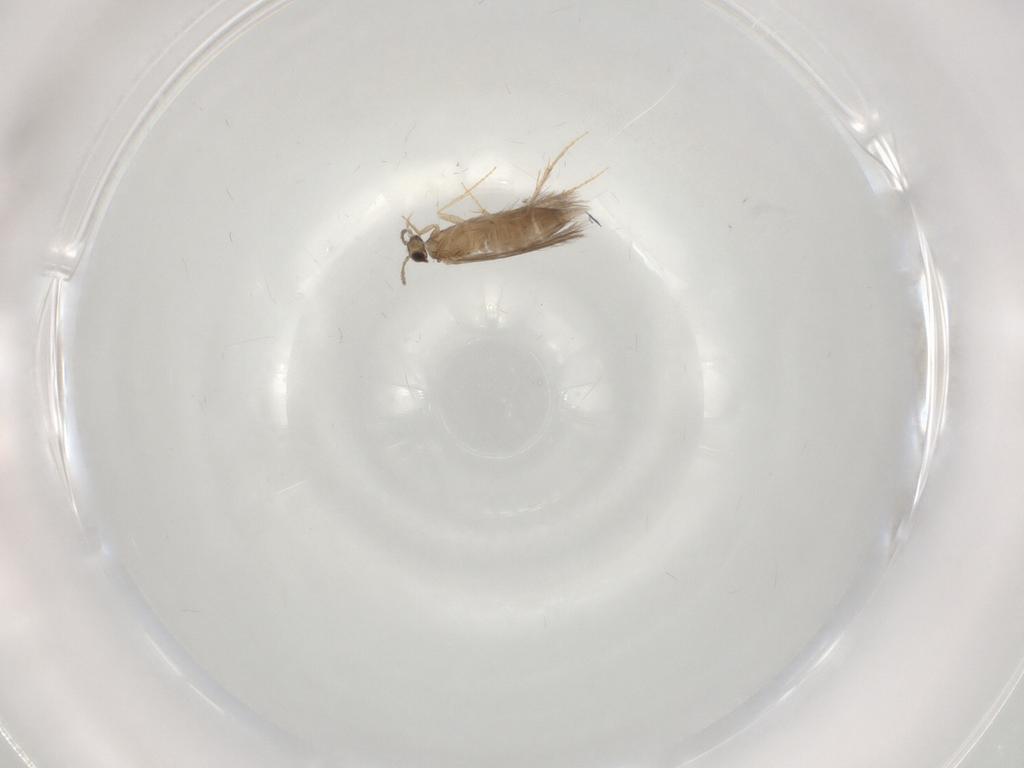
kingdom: Animalia
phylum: Arthropoda
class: Insecta
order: Trichoptera
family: Hydroptilidae
